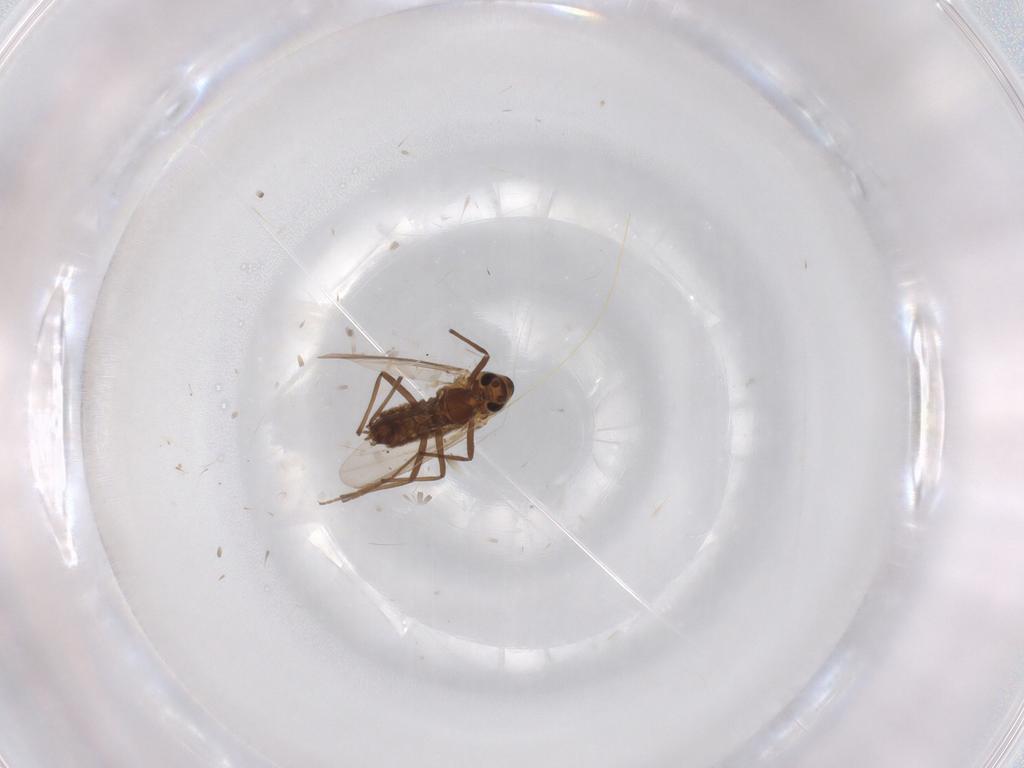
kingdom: Animalia
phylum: Arthropoda
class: Insecta
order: Diptera
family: Chironomidae
